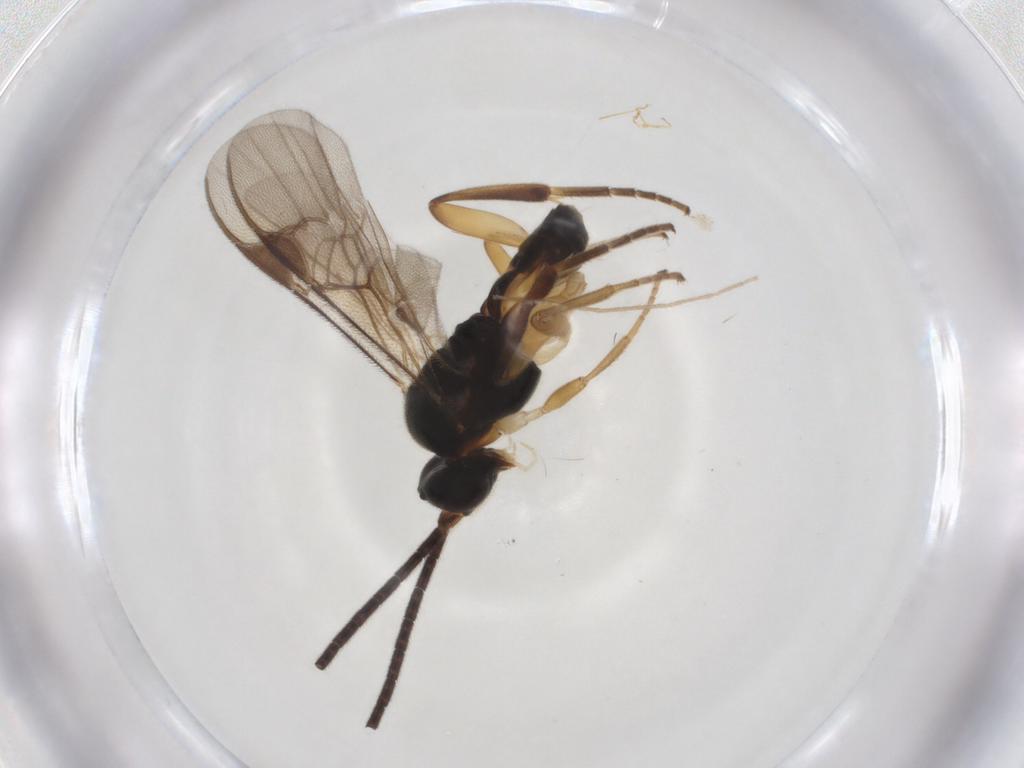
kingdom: Animalia
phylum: Arthropoda
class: Insecta
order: Hymenoptera
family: Braconidae
